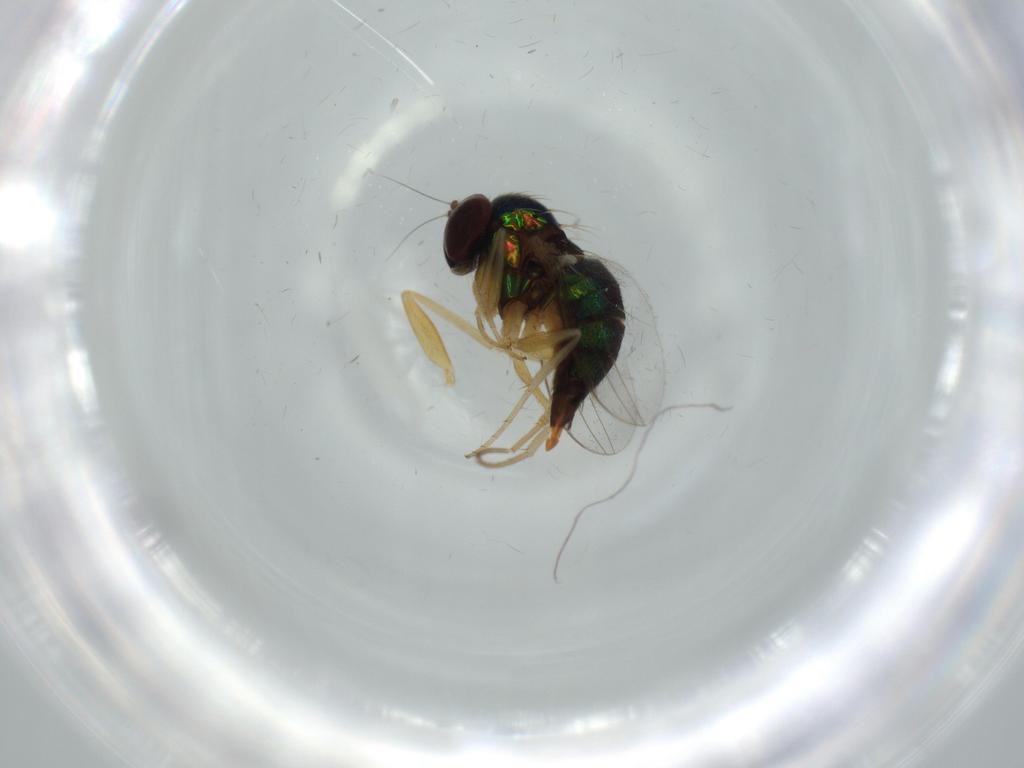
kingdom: Animalia
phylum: Arthropoda
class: Insecta
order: Diptera
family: Dolichopodidae
